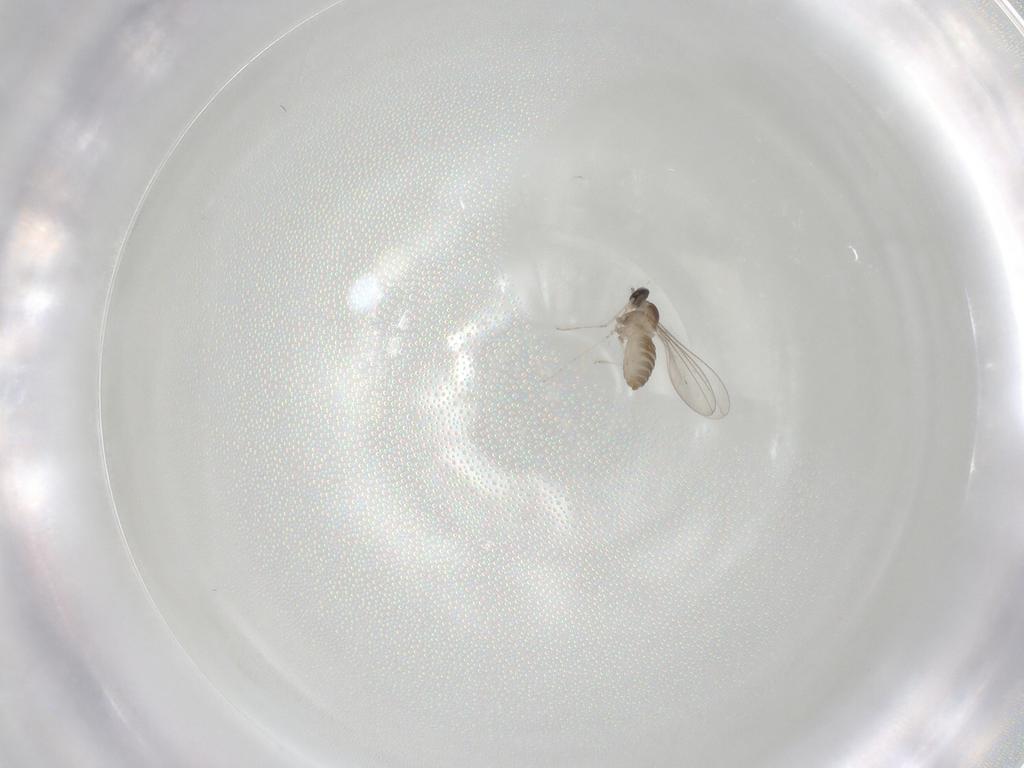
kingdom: Animalia
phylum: Arthropoda
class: Insecta
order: Diptera
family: Cecidomyiidae
